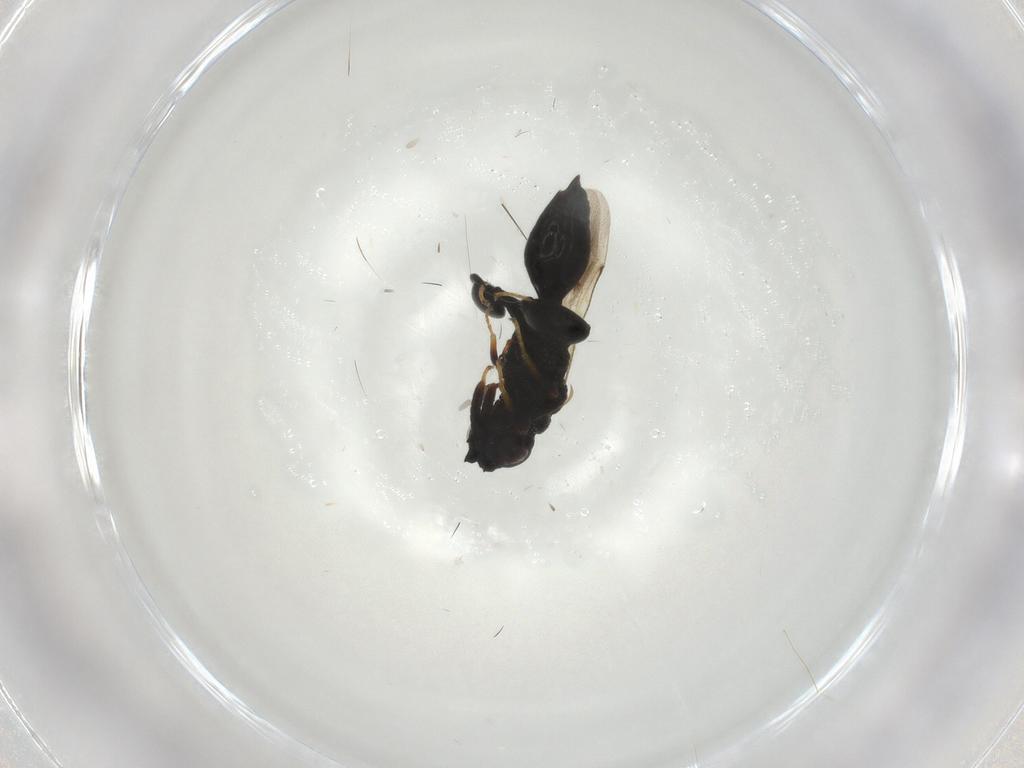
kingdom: Animalia
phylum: Arthropoda
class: Insecta
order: Hymenoptera
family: Chalcididae
